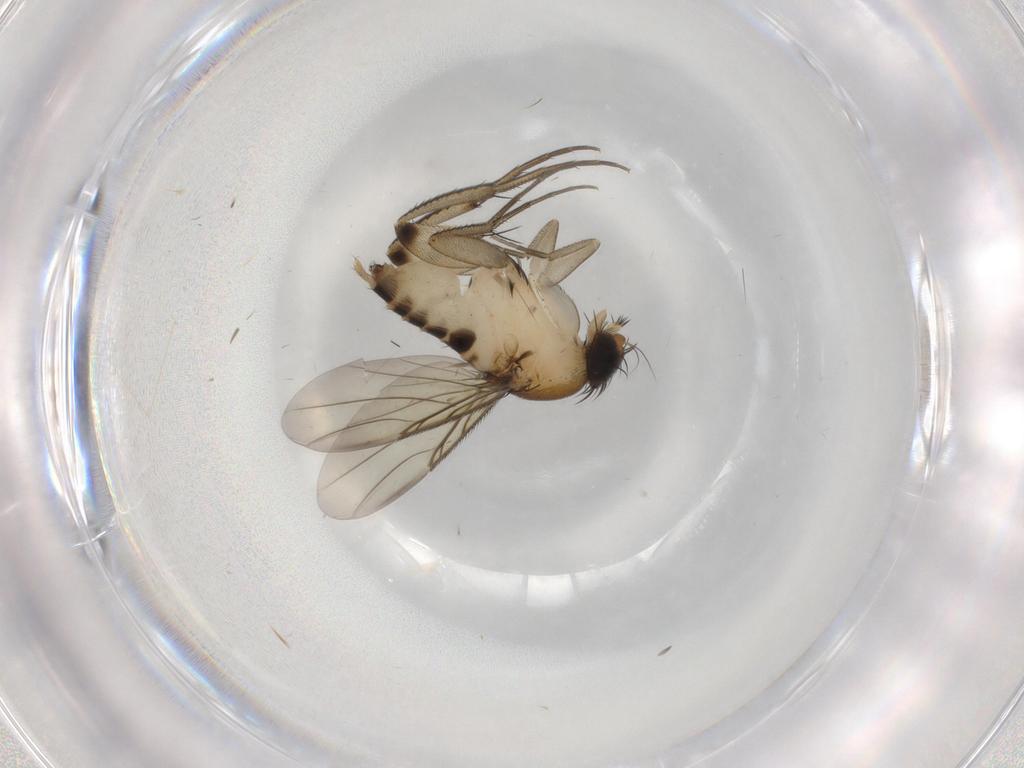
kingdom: Animalia
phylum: Arthropoda
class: Insecta
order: Diptera
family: Phoridae
